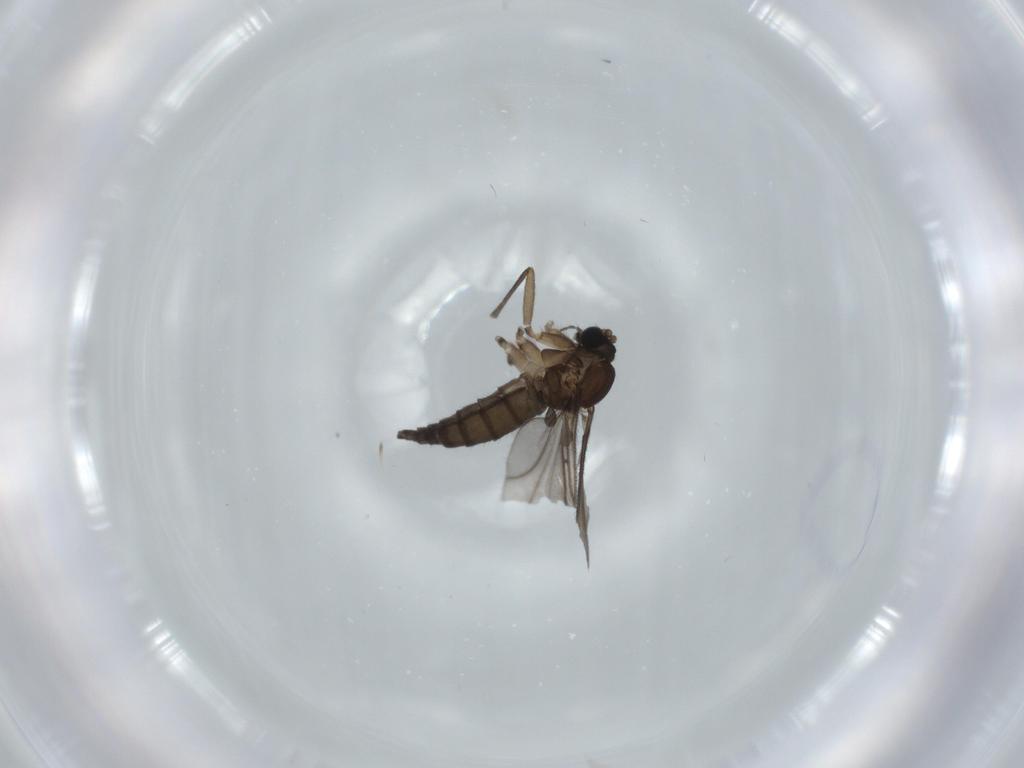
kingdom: Animalia
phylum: Arthropoda
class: Insecta
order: Diptera
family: Sciaridae
